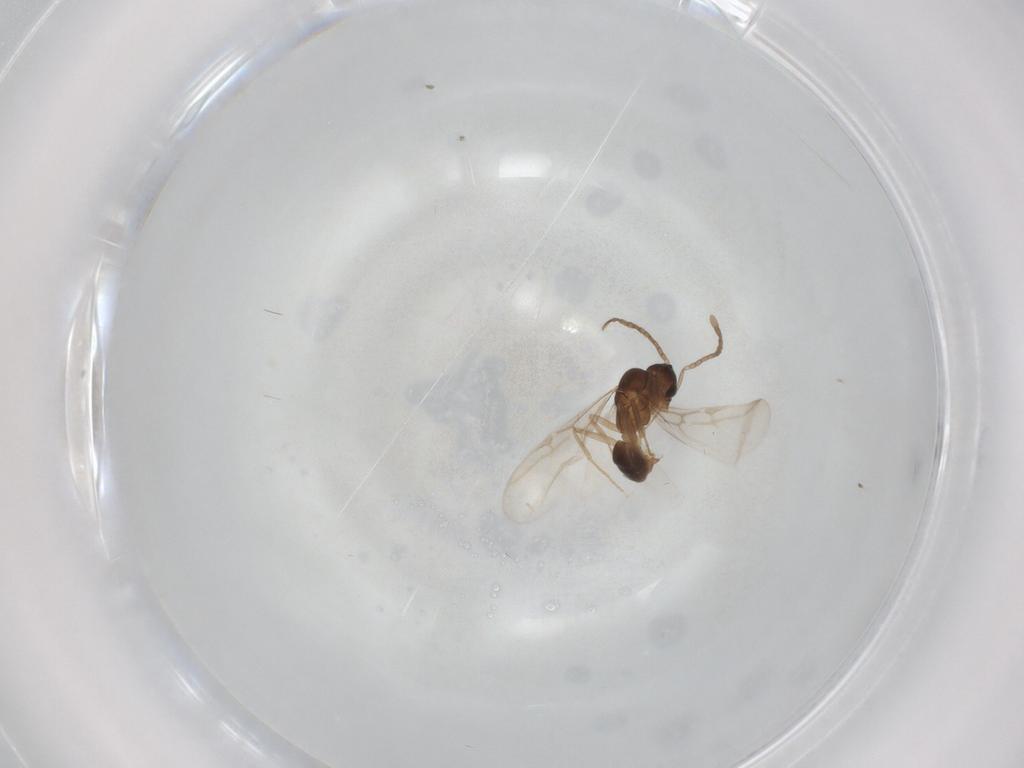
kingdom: Animalia
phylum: Arthropoda
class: Insecta
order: Hymenoptera
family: Formicidae
